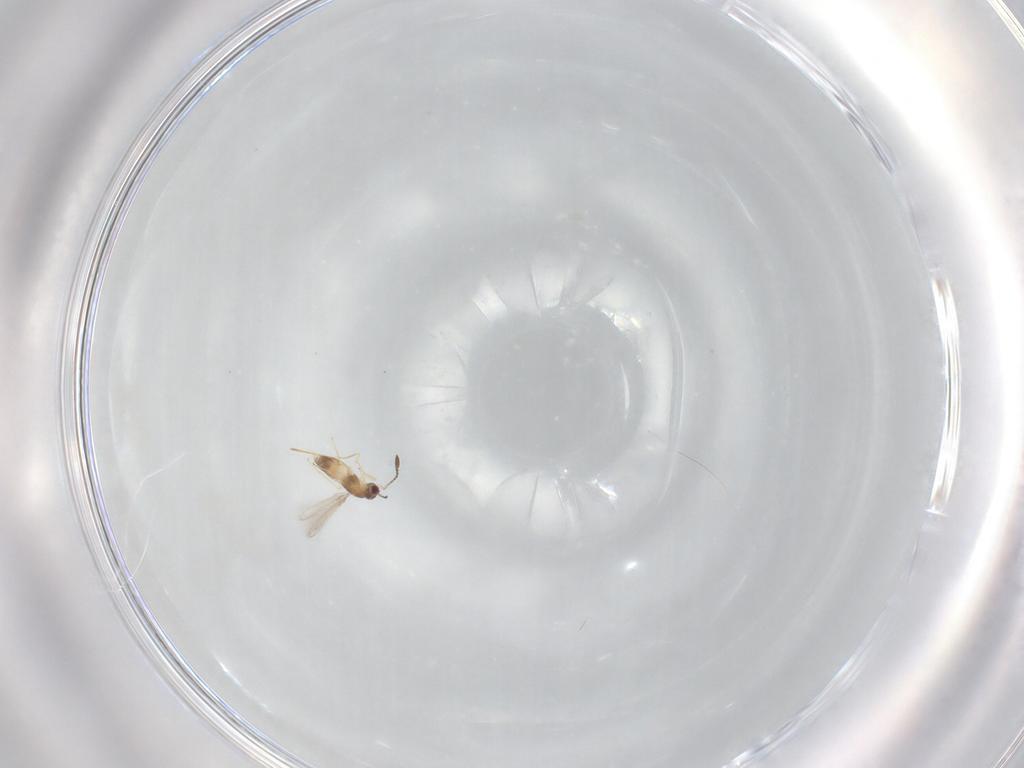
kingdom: Animalia
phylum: Arthropoda
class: Insecta
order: Hymenoptera
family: Mymaridae
